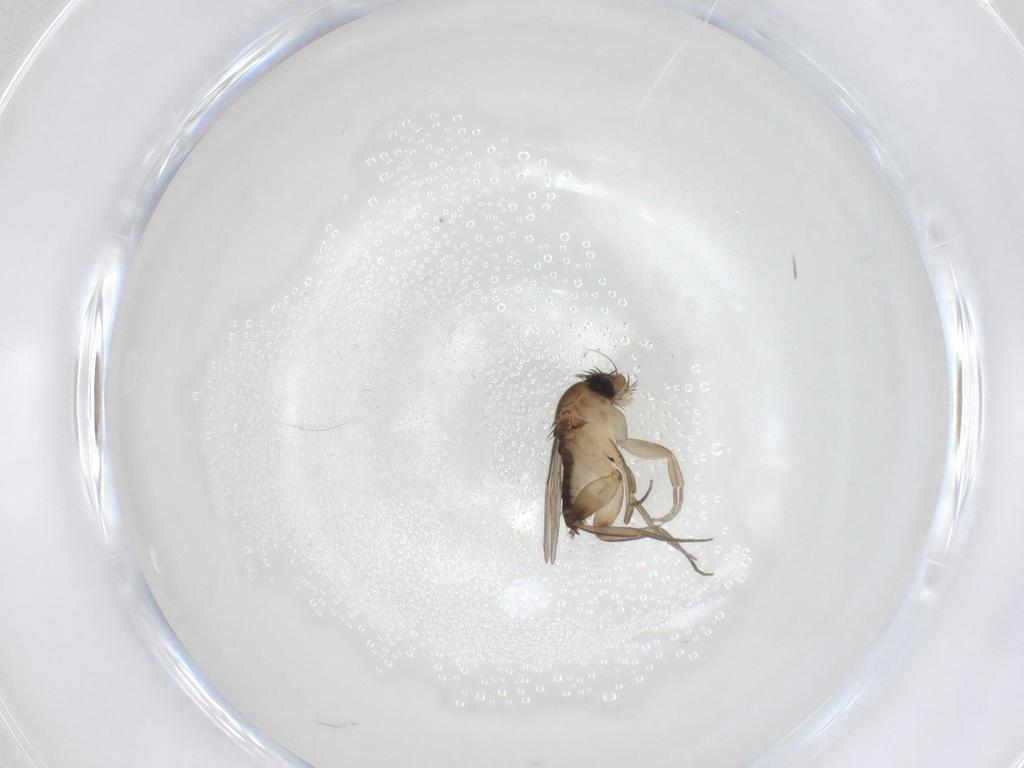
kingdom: Animalia
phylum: Arthropoda
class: Insecta
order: Diptera
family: Phoridae
